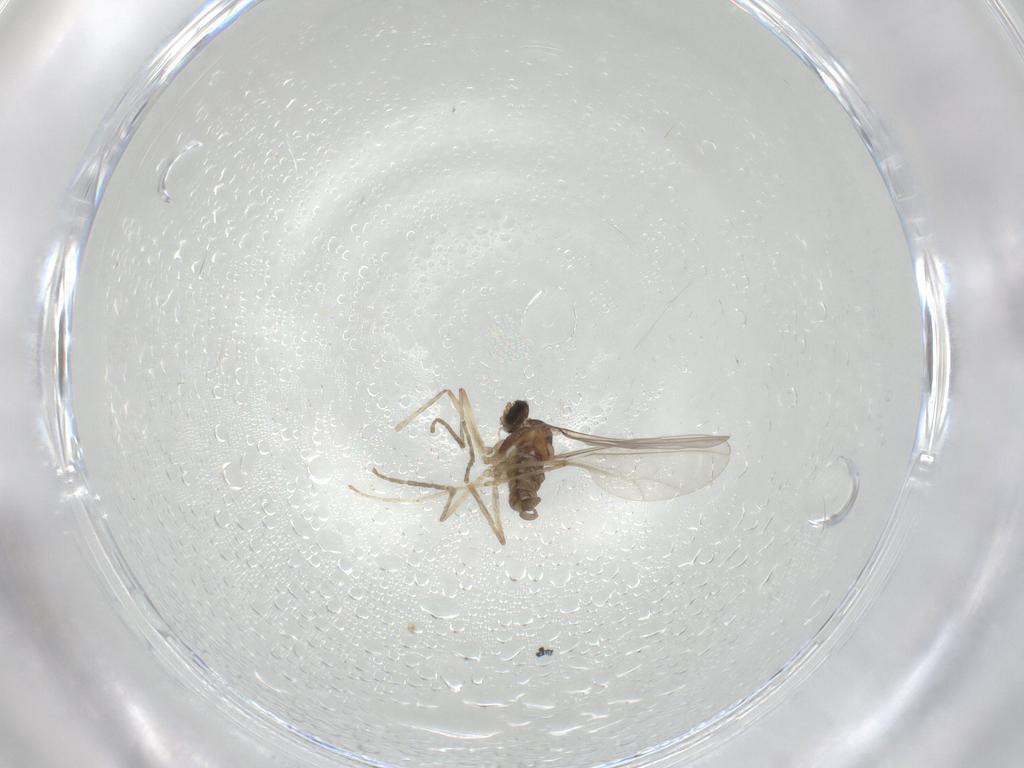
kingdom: Animalia
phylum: Arthropoda
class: Insecta
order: Diptera
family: Cecidomyiidae
